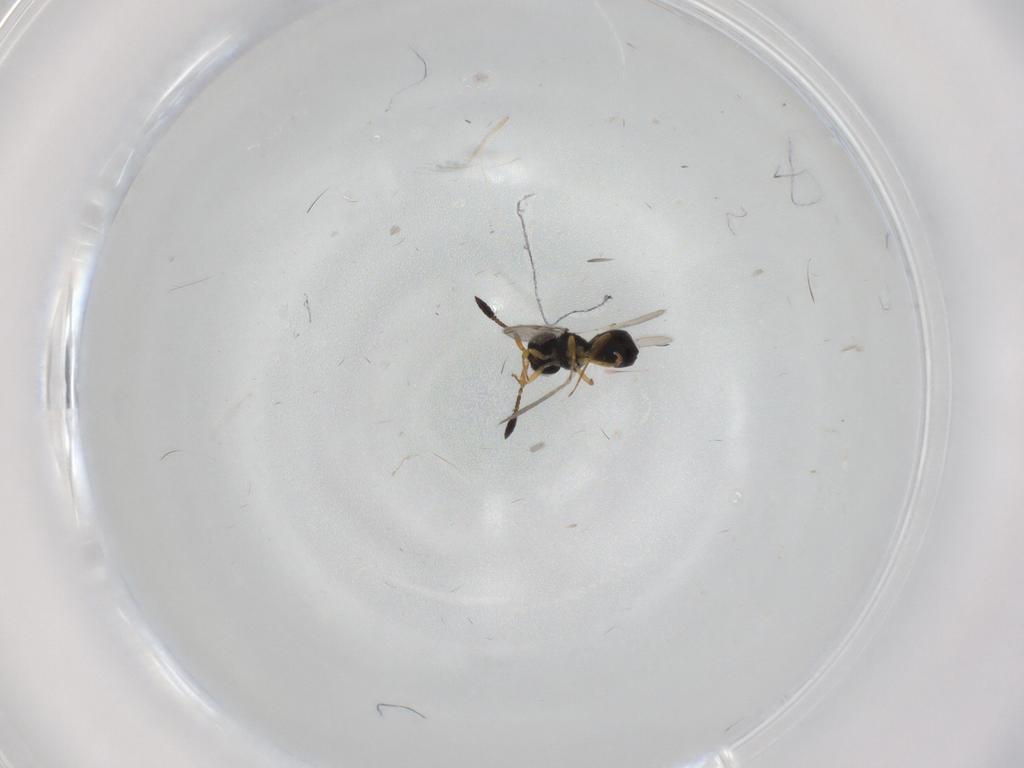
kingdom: Animalia
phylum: Arthropoda
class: Insecta
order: Hymenoptera
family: Scelionidae
